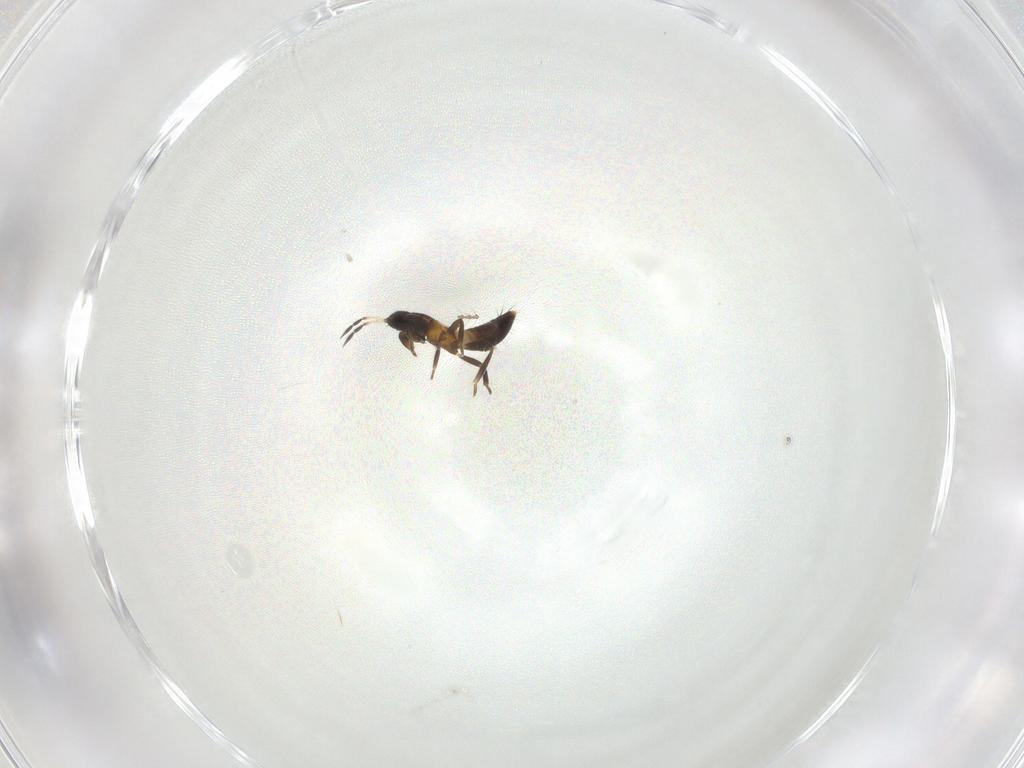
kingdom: Animalia
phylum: Arthropoda
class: Insecta
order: Thysanoptera
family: Aeolothripidae
